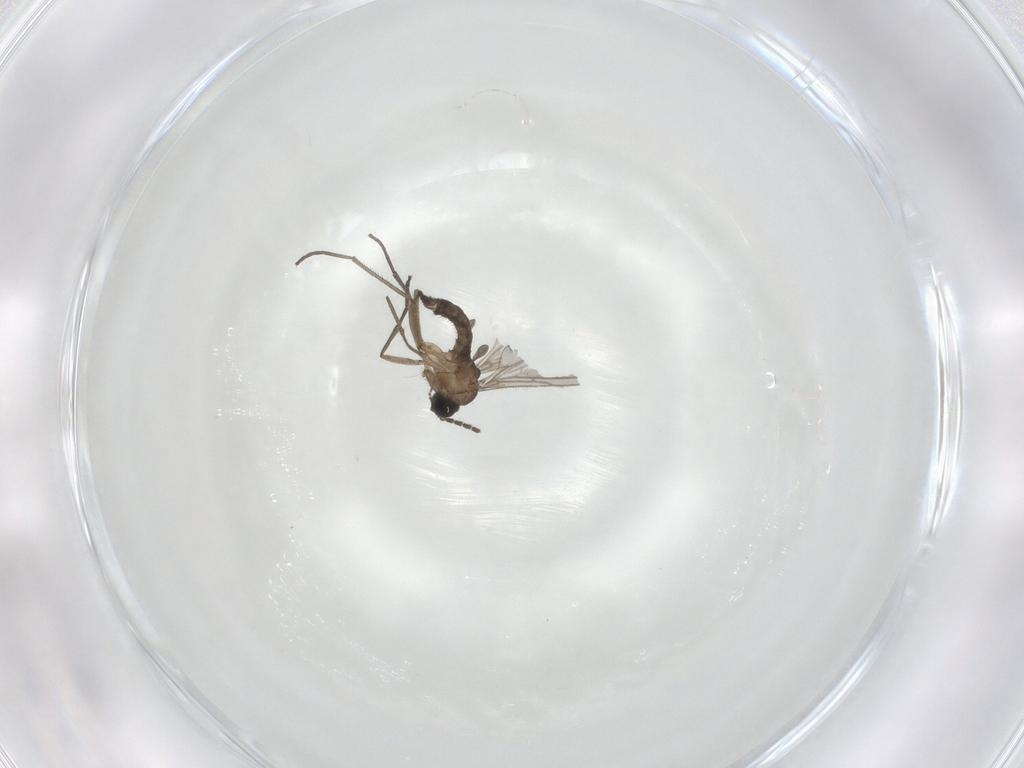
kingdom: Animalia
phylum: Arthropoda
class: Insecta
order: Diptera
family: Sciaridae
